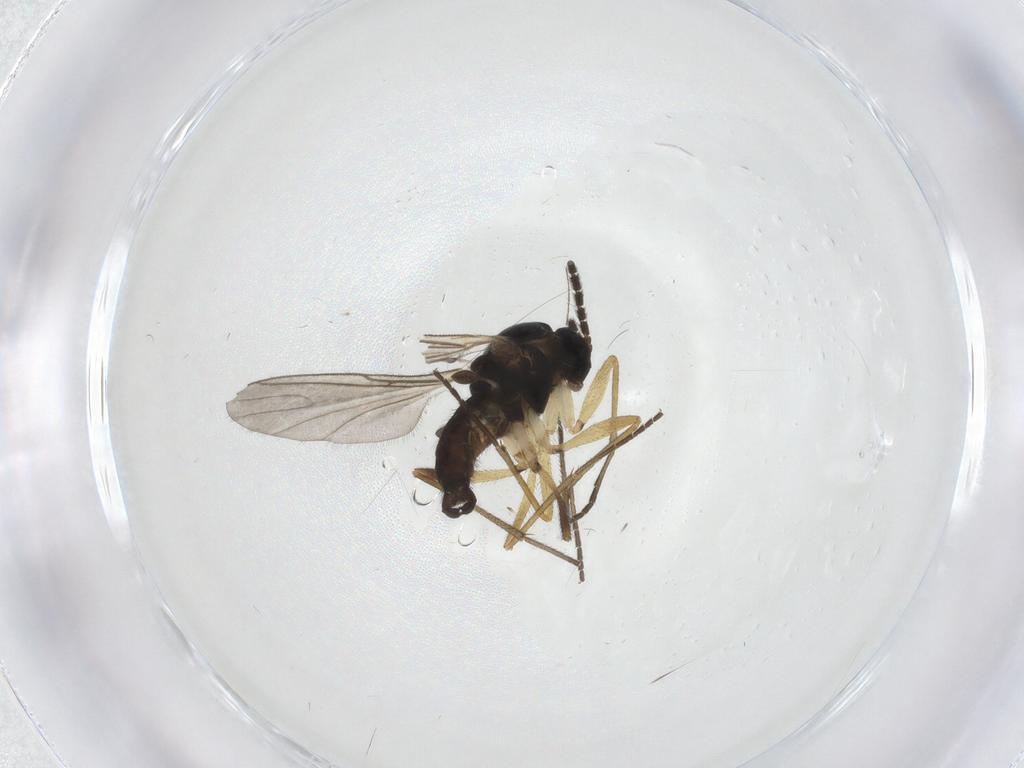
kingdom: Animalia
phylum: Arthropoda
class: Insecta
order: Diptera
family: Sciaridae
